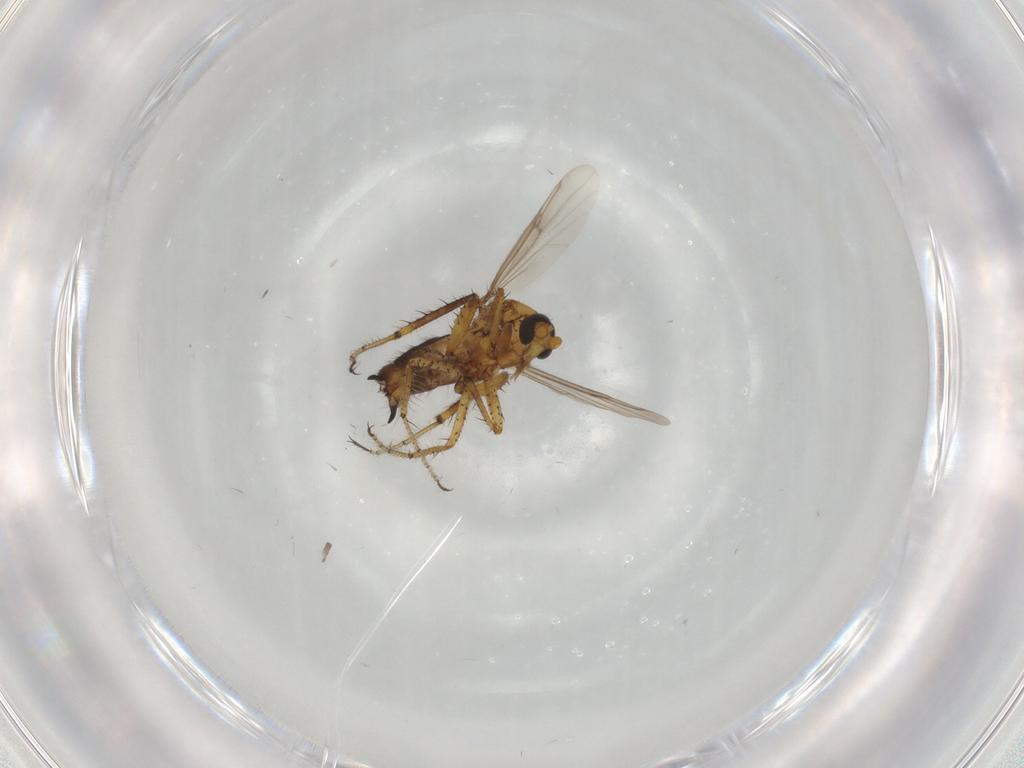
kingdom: Animalia
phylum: Arthropoda
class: Insecta
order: Diptera
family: Ceratopogonidae
